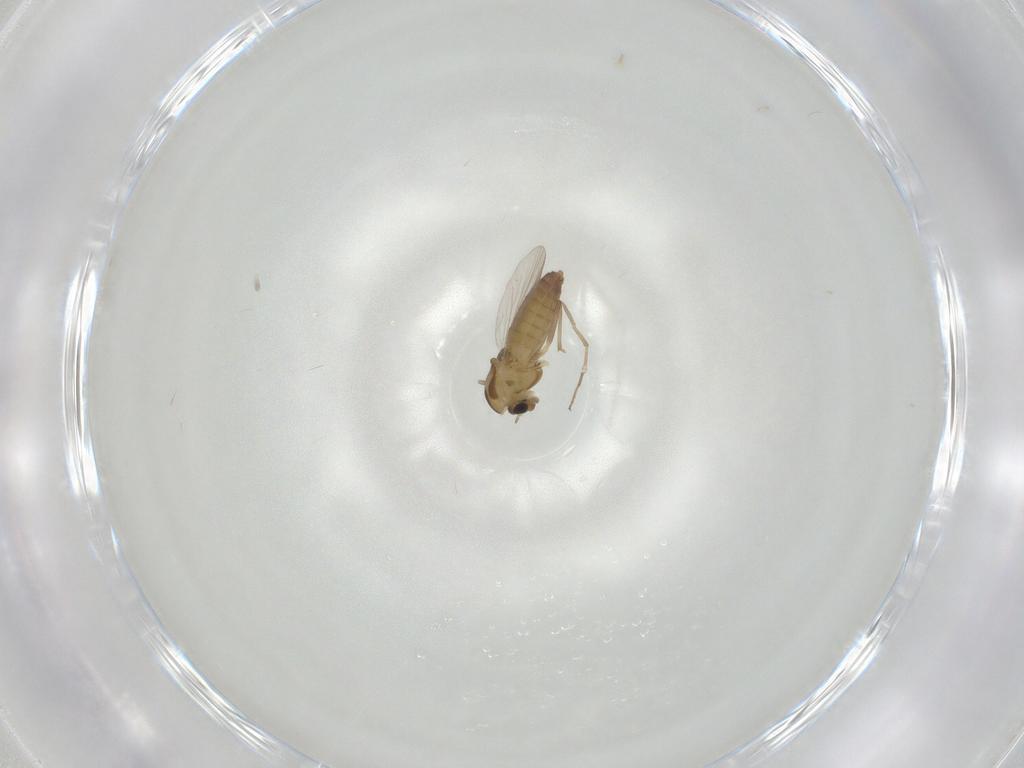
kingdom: Animalia
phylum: Arthropoda
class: Insecta
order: Diptera
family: Chironomidae
